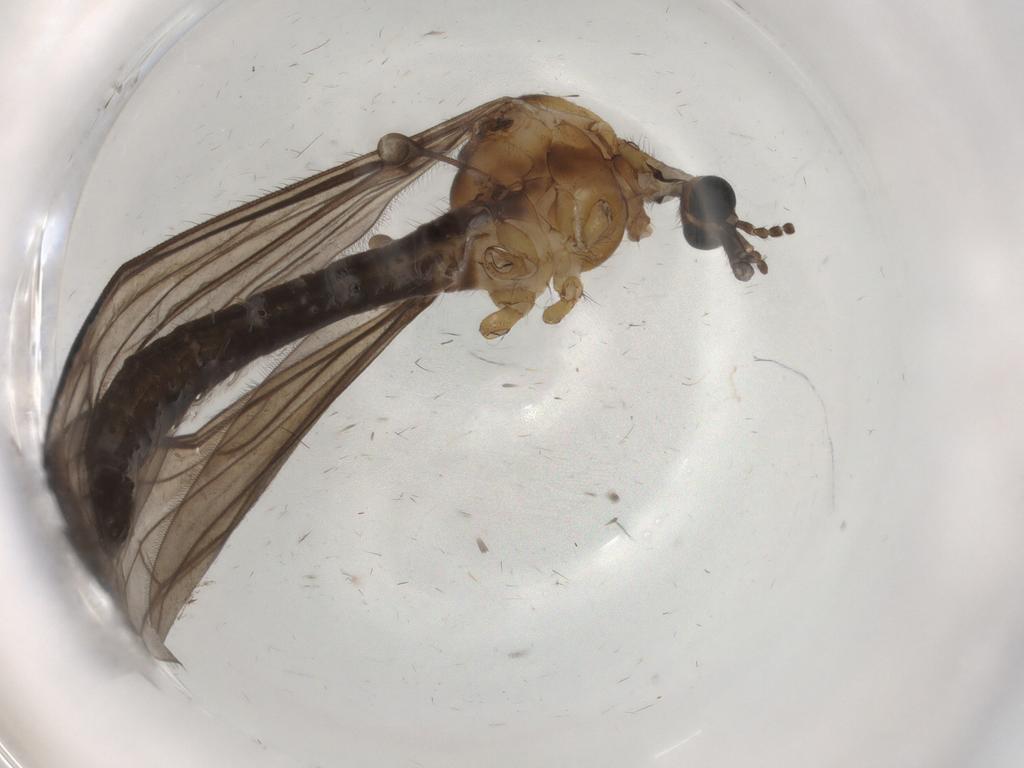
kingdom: Animalia
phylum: Arthropoda
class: Insecta
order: Diptera
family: Limoniidae
